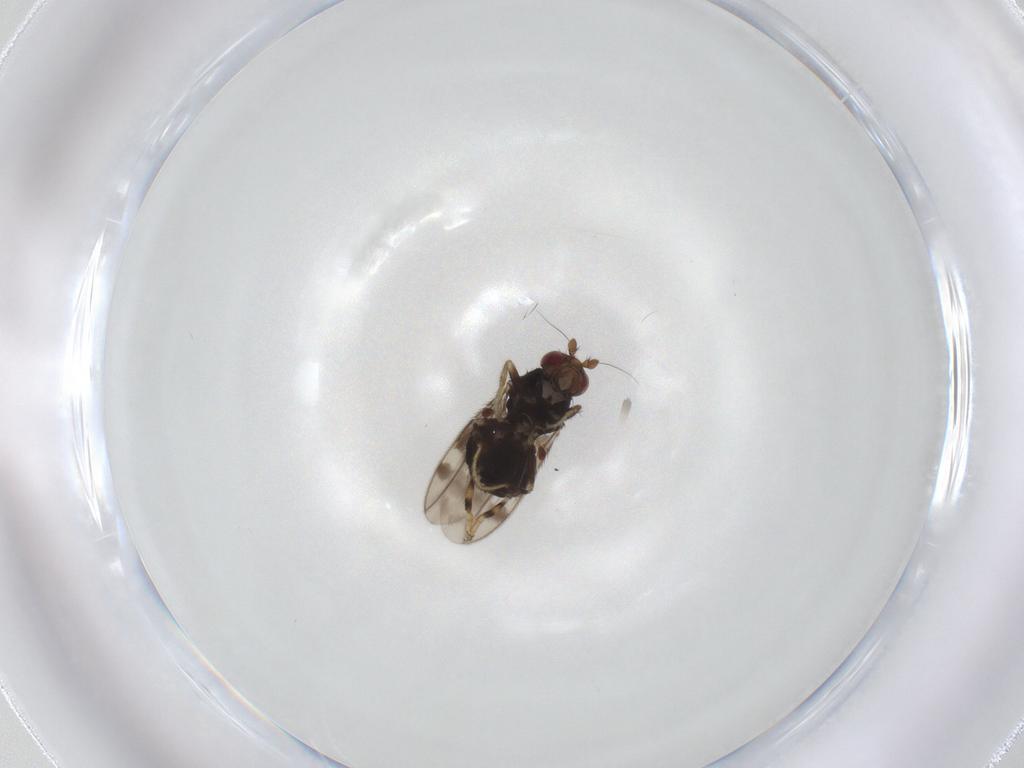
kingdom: Animalia
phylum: Arthropoda
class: Insecta
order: Diptera
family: Sphaeroceridae
